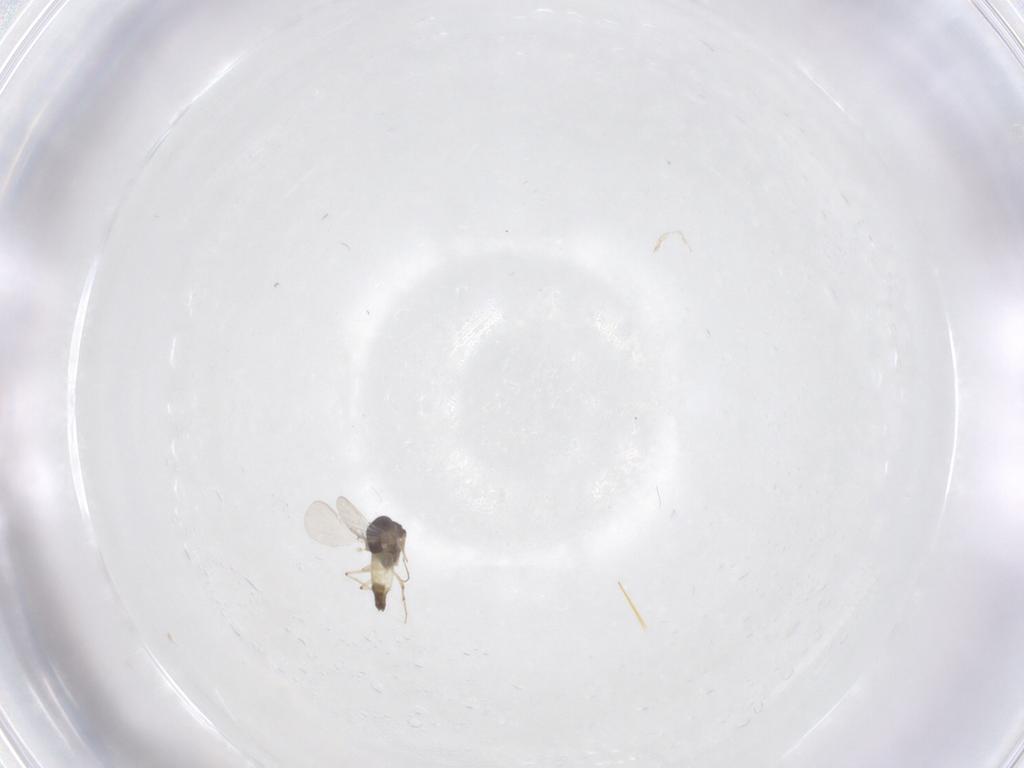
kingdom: Animalia
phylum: Arthropoda
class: Insecta
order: Diptera
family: Chironomidae
